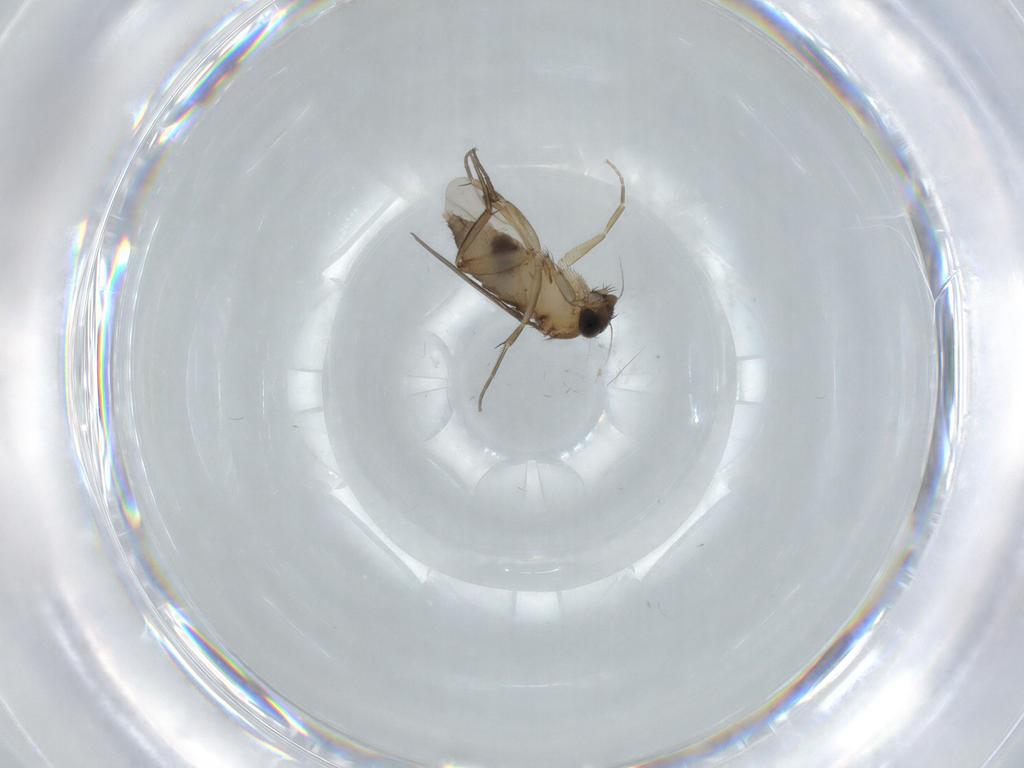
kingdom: Animalia
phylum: Arthropoda
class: Insecta
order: Diptera
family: Phoridae
